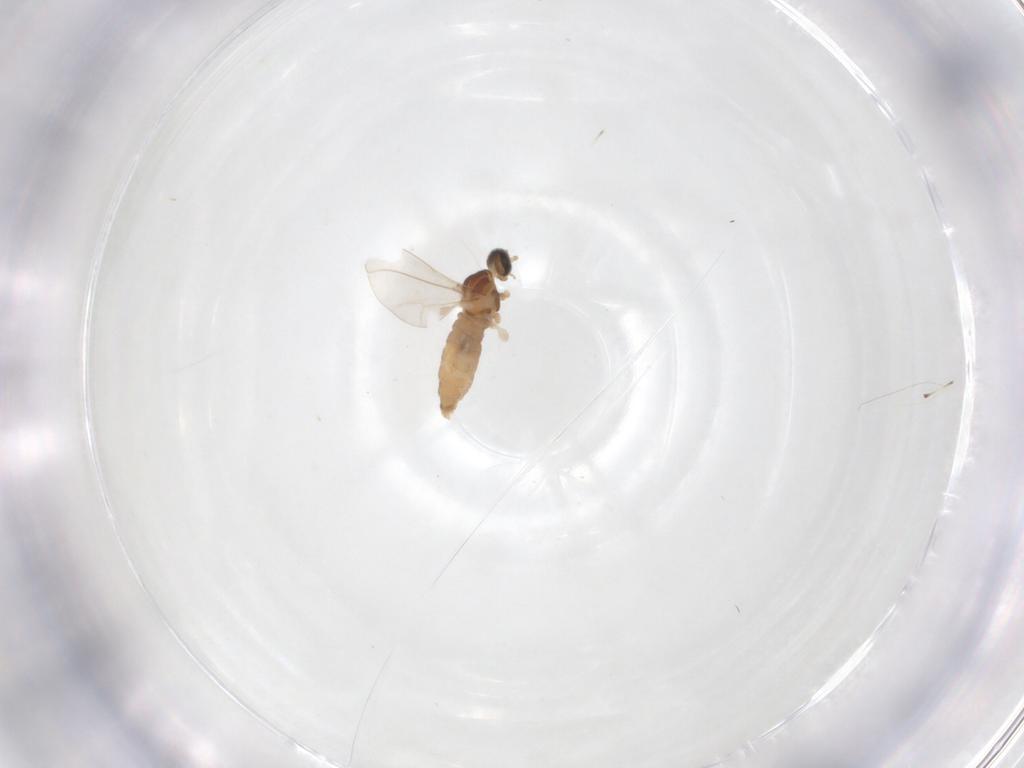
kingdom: Animalia
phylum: Arthropoda
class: Insecta
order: Diptera
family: Cecidomyiidae
